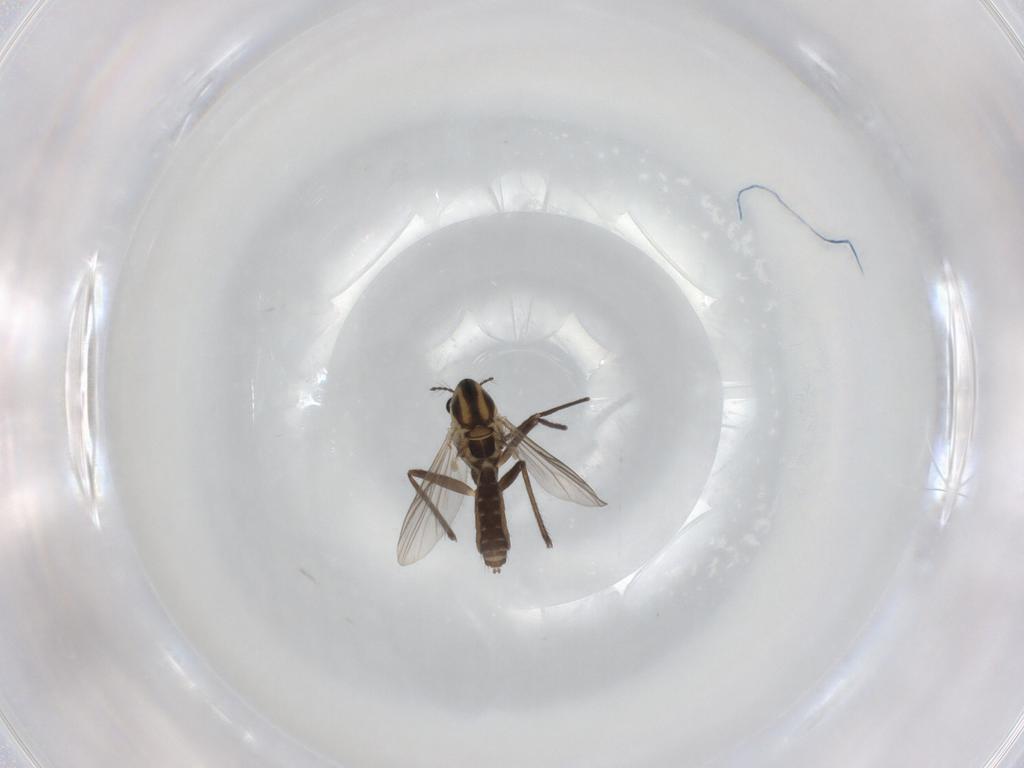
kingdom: Animalia
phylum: Arthropoda
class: Insecta
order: Diptera
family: Chironomidae
